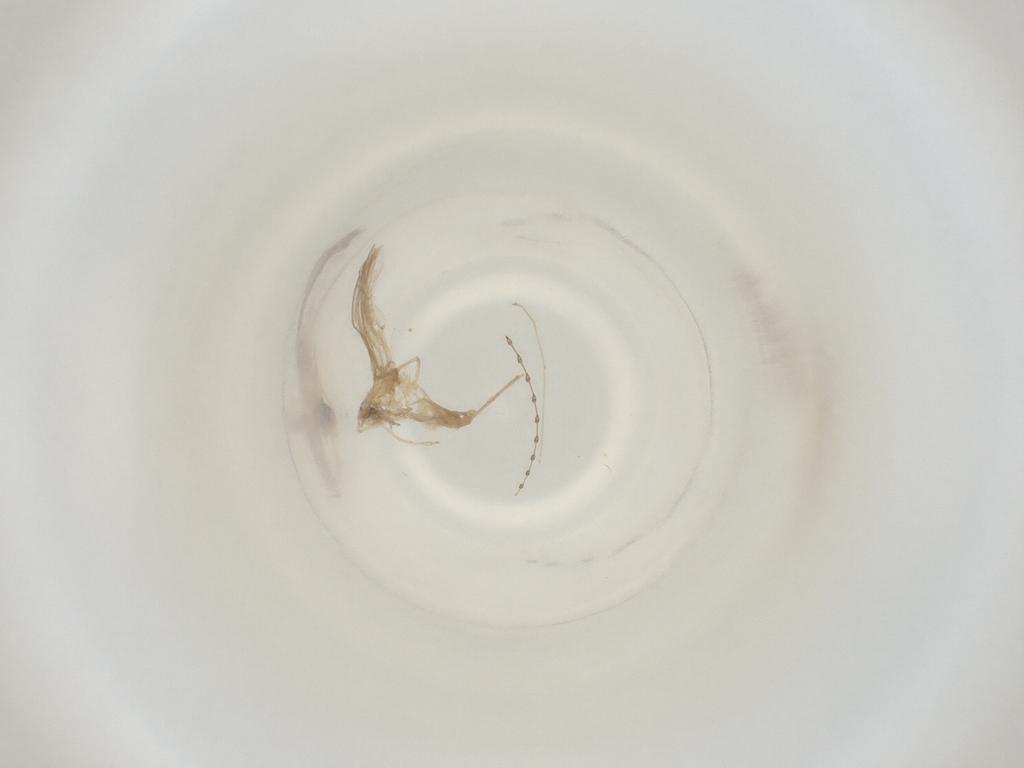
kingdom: Animalia
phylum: Arthropoda
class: Insecta
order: Diptera
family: Cecidomyiidae
